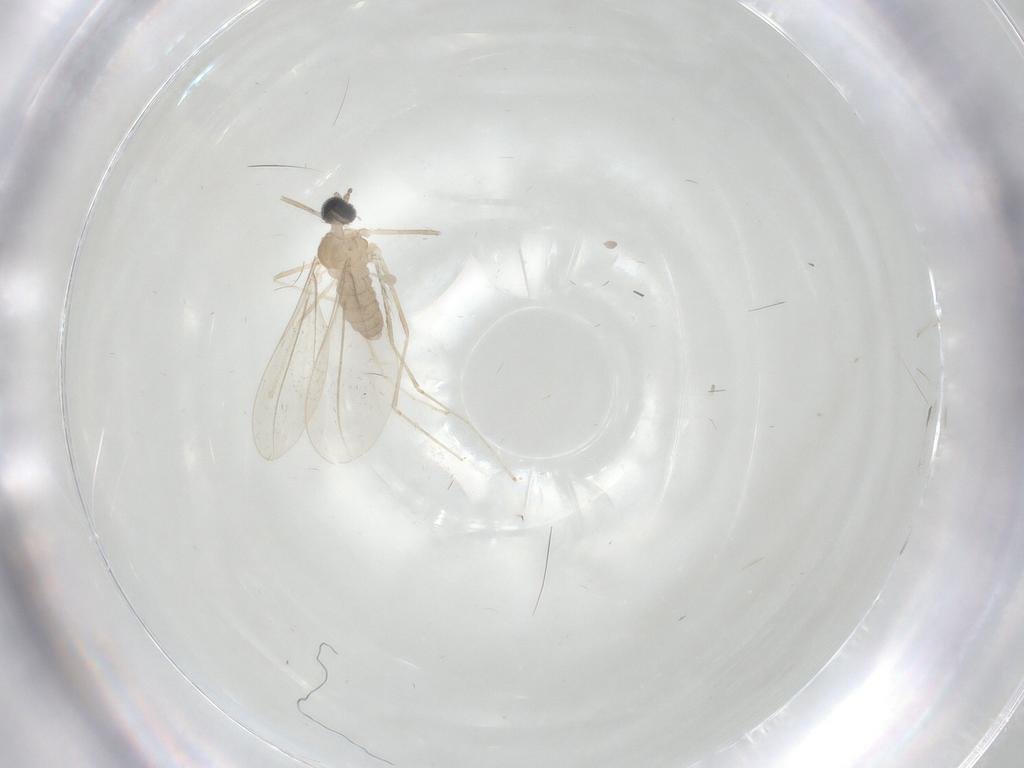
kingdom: Animalia
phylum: Arthropoda
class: Insecta
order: Diptera
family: Cecidomyiidae
